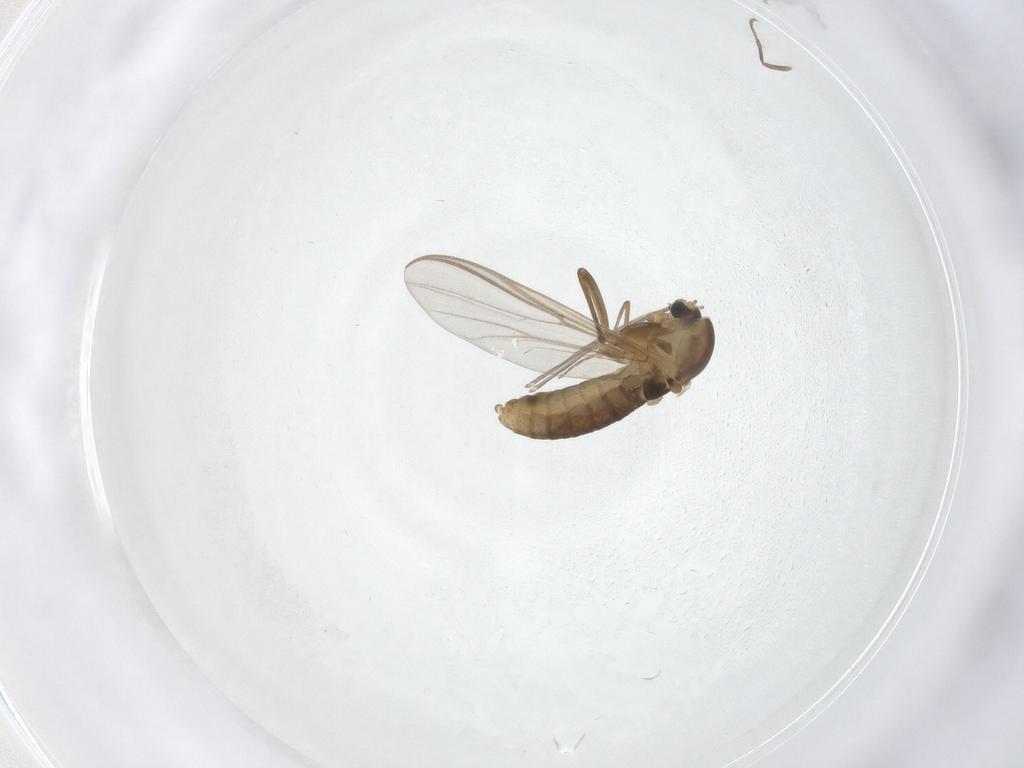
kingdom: Animalia
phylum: Arthropoda
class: Insecta
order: Diptera
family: Chironomidae
